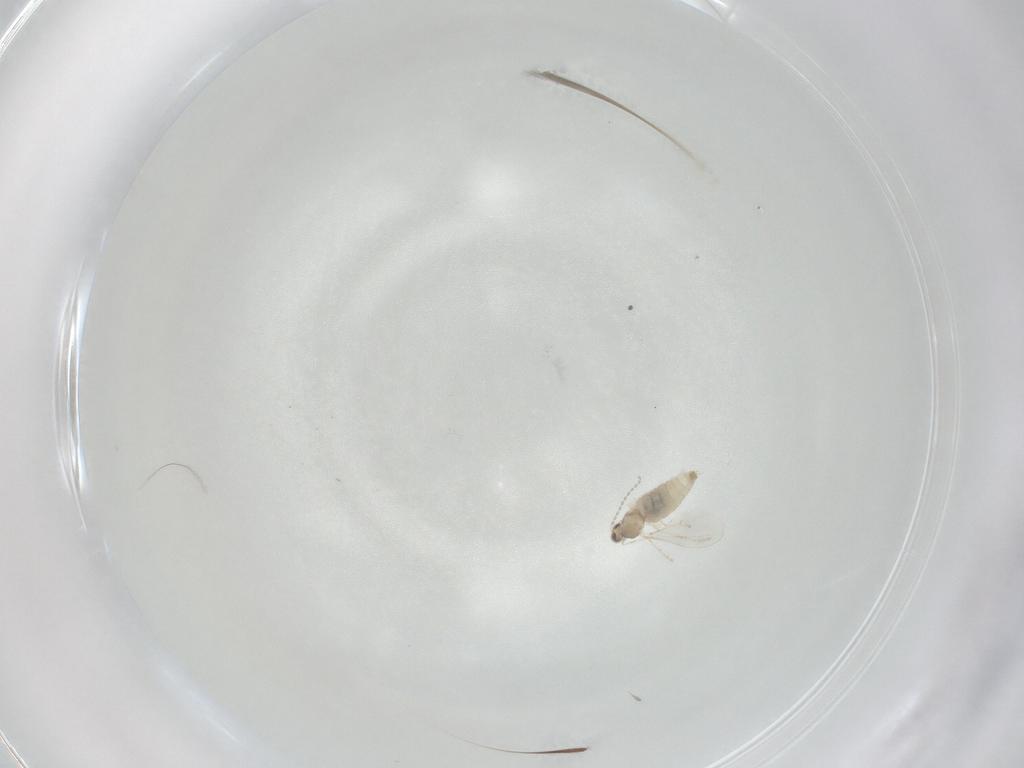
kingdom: Animalia
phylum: Arthropoda
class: Insecta
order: Diptera
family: Cecidomyiidae
